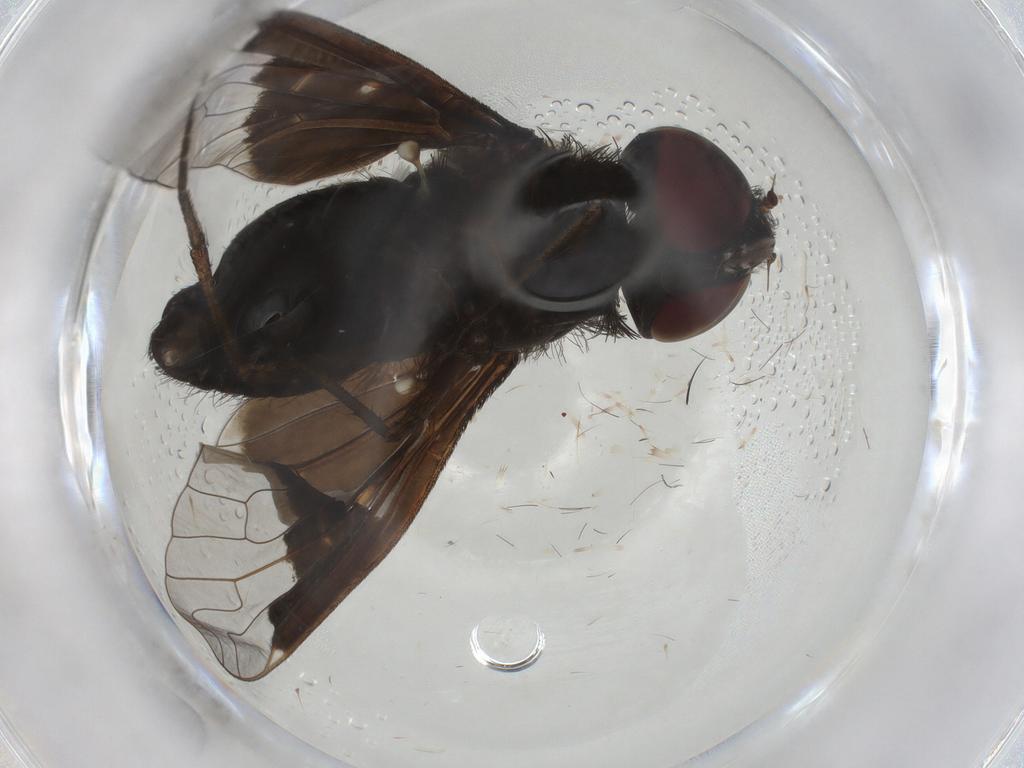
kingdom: Animalia
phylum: Arthropoda
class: Insecta
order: Diptera
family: Bombyliidae
